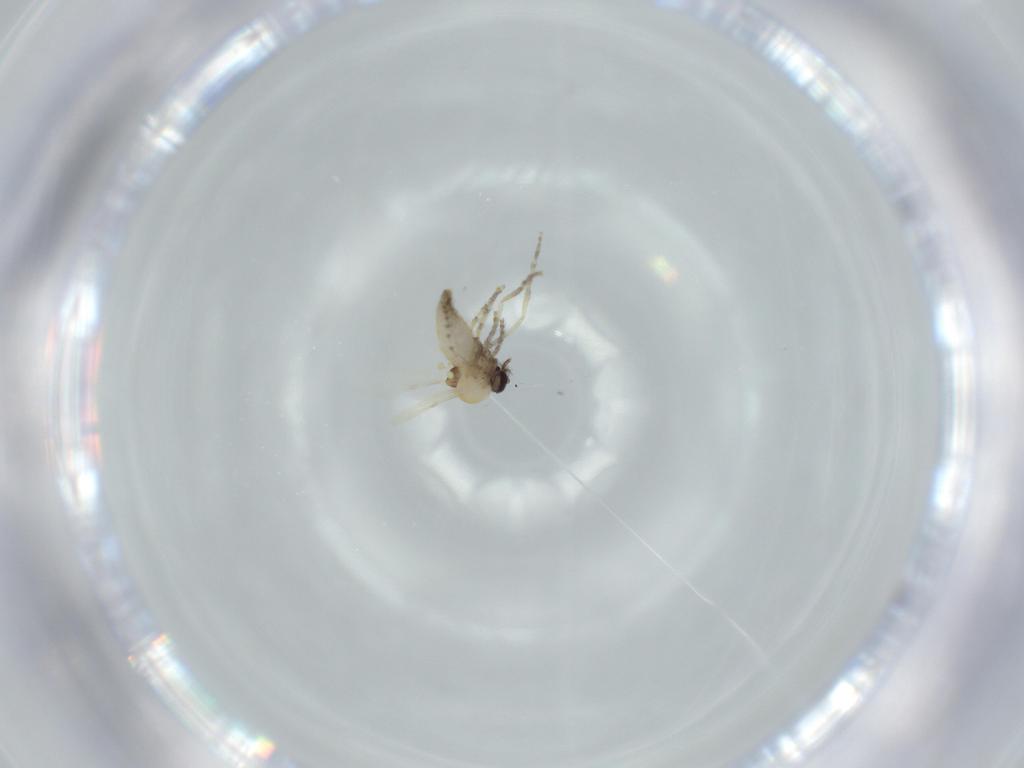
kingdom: Animalia
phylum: Arthropoda
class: Insecta
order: Diptera
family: Ceratopogonidae
